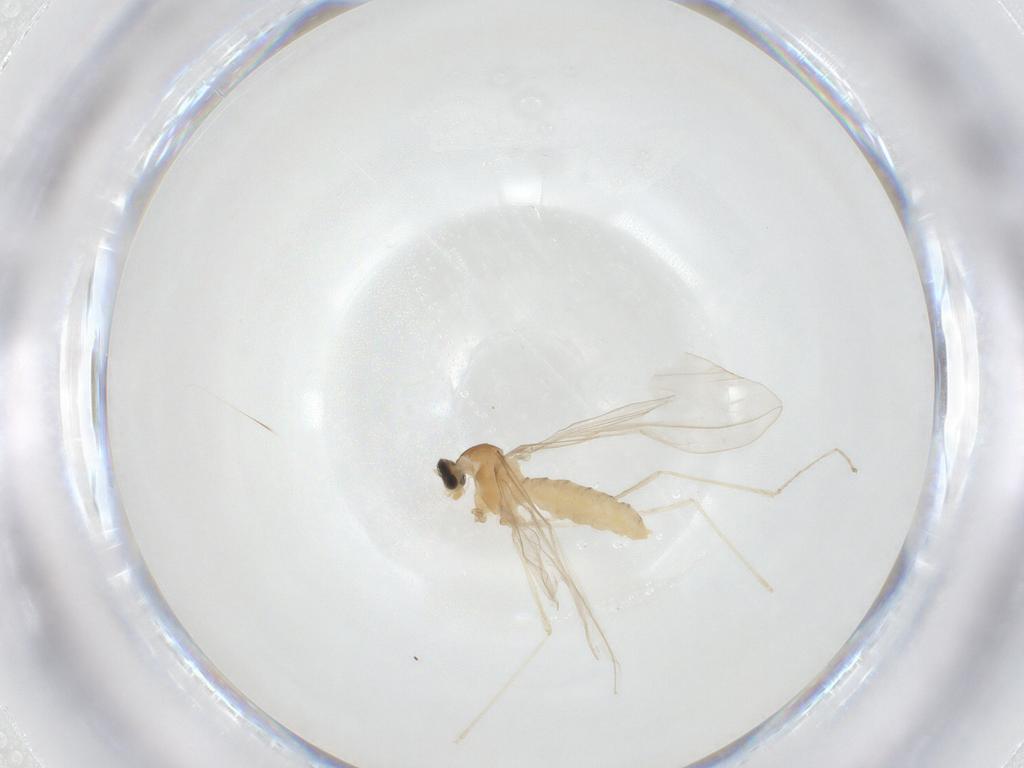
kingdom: Animalia
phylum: Arthropoda
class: Insecta
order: Diptera
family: Cecidomyiidae
